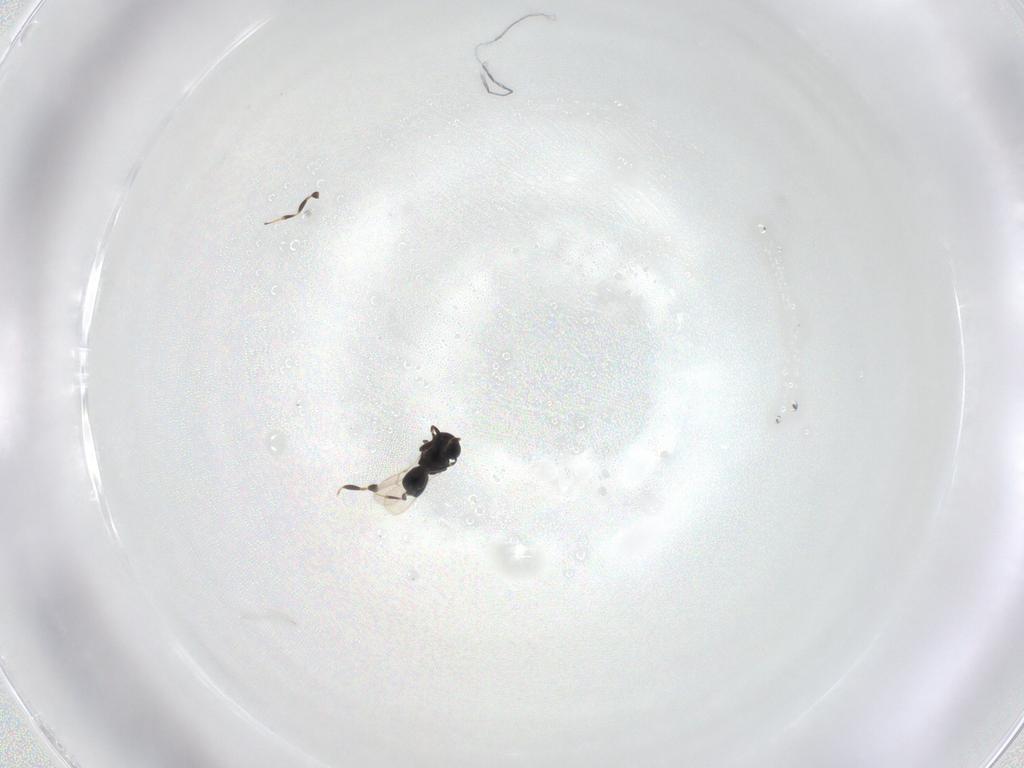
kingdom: Animalia
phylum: Arthropoda
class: Insecta
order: Hymenoptera
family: Scelionidae
